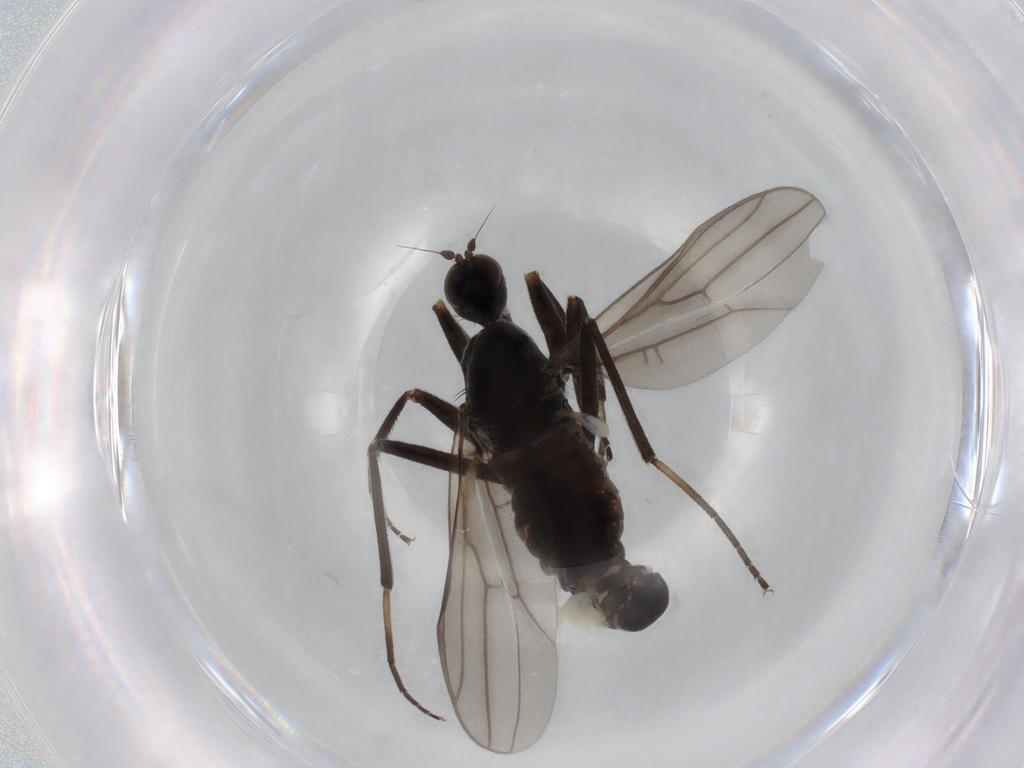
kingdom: Animalia
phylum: Arthropoda
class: Insecta
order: Diptera
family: Hybotidae
